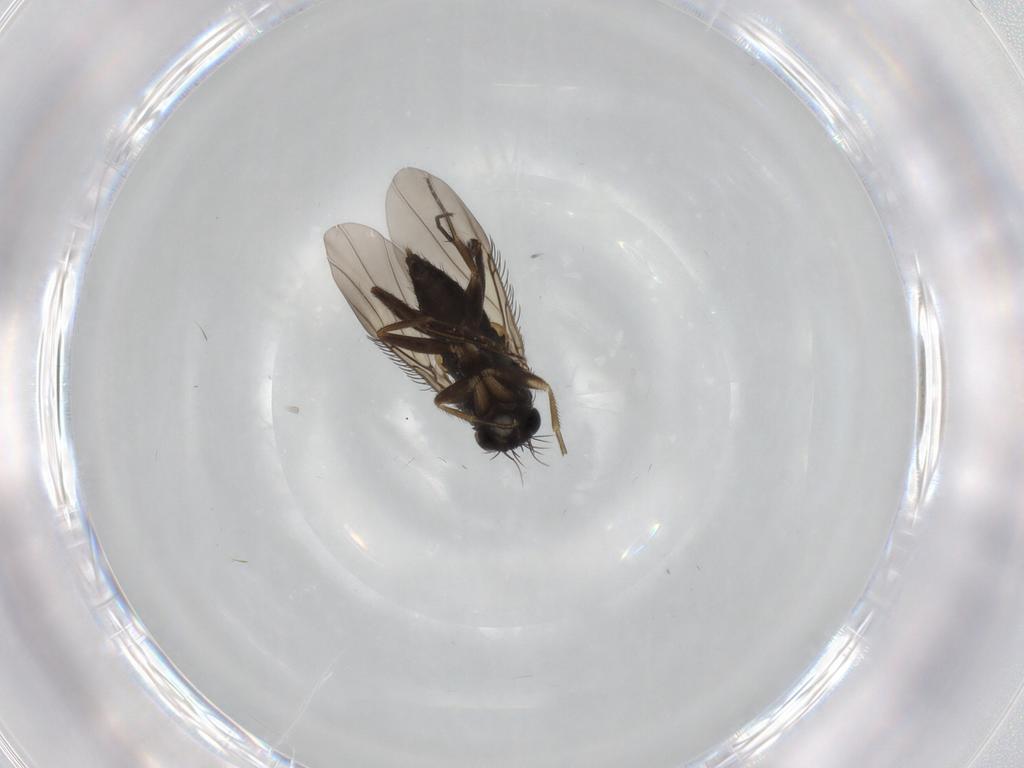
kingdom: Animalia
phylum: Arthropoda
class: Insecta
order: Diptera
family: Phoridae
